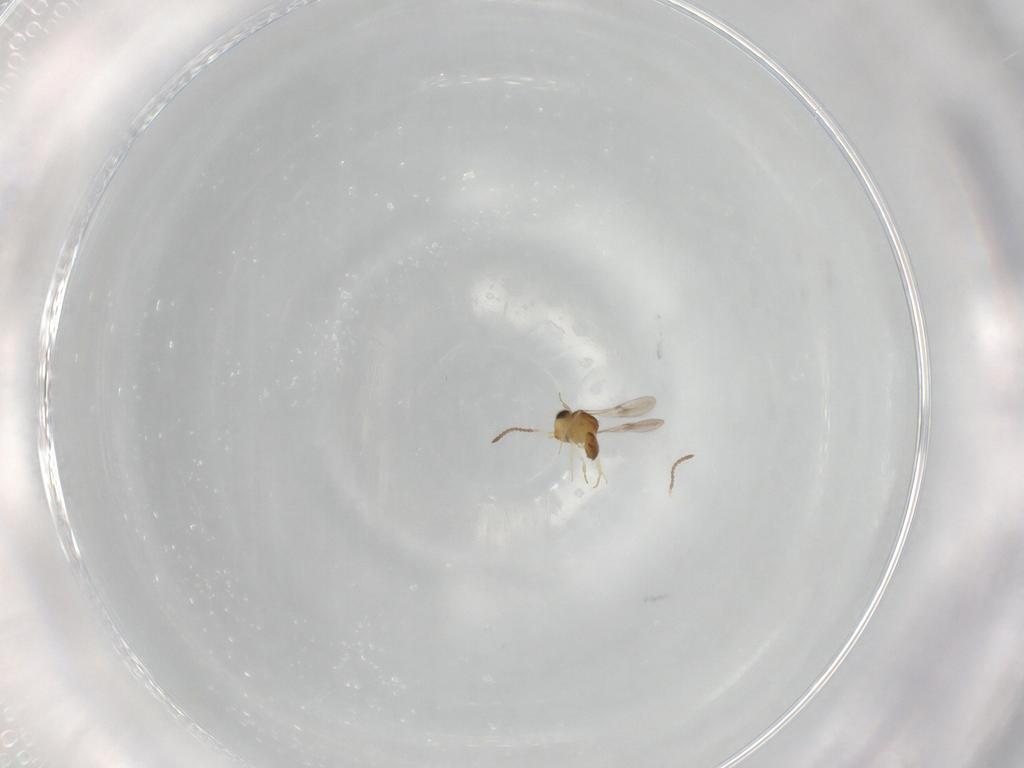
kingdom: Animalia
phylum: Arthropoda
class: Insecta
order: Hymenoptera
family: Scelionidae
